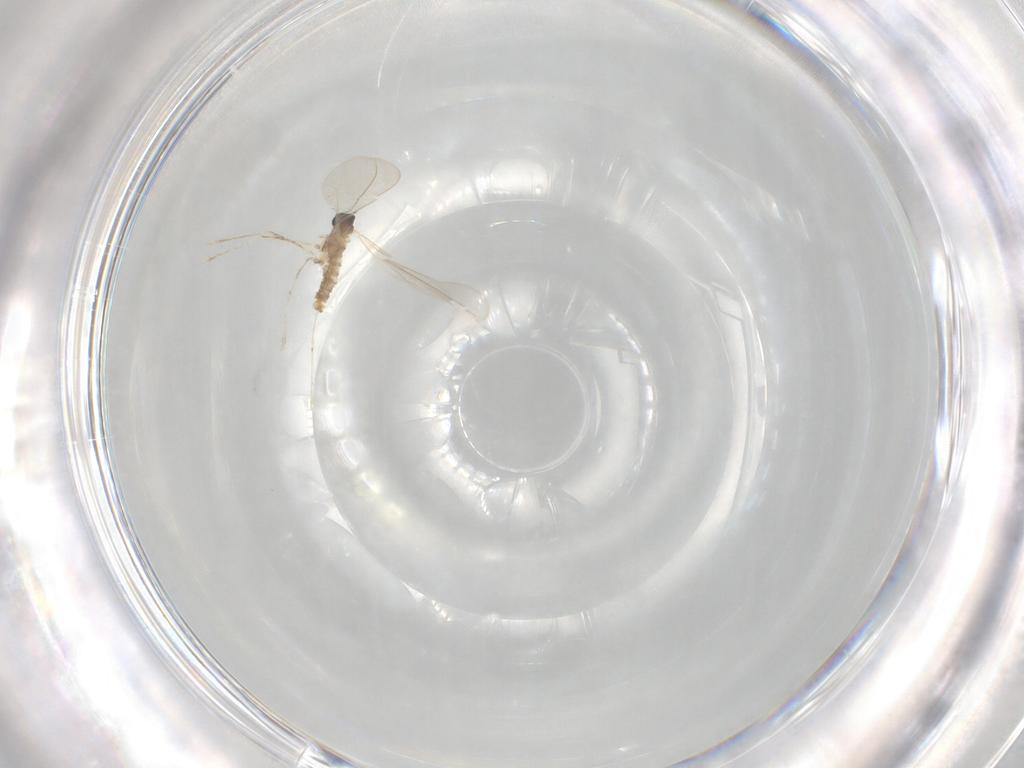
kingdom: Animalia
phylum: Arthropoda
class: Insecta
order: Diptera
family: Cecidomyiidae
